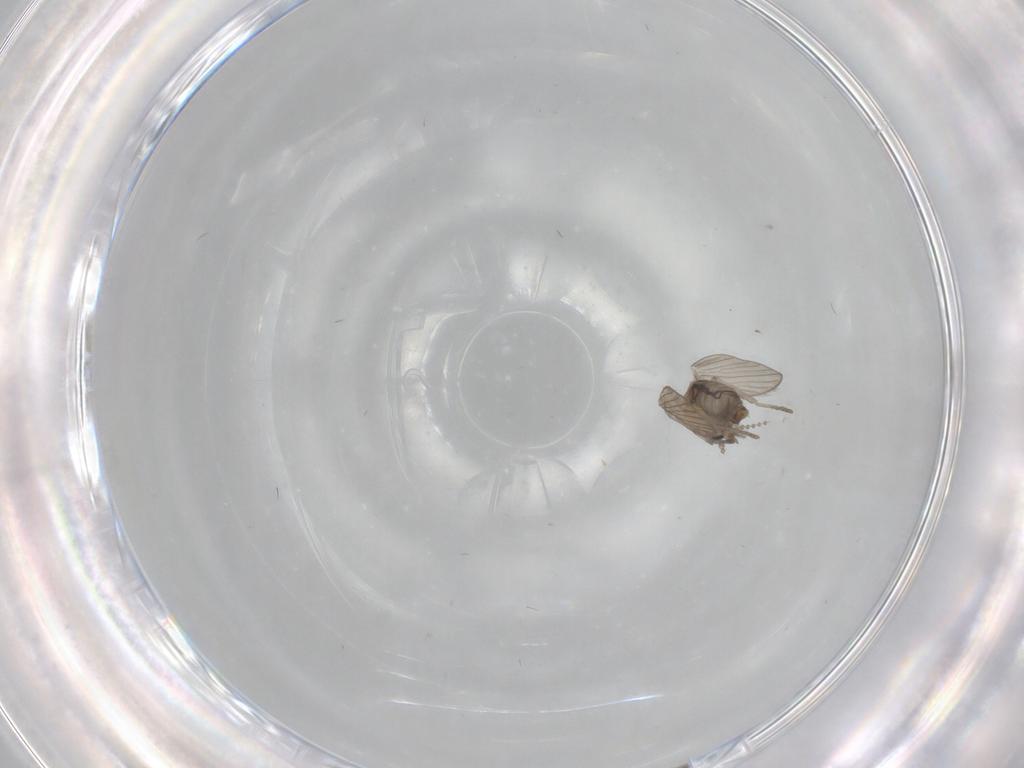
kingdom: Animalia
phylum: Arthropoda
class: Insecta
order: Diptera
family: Psychodidae
